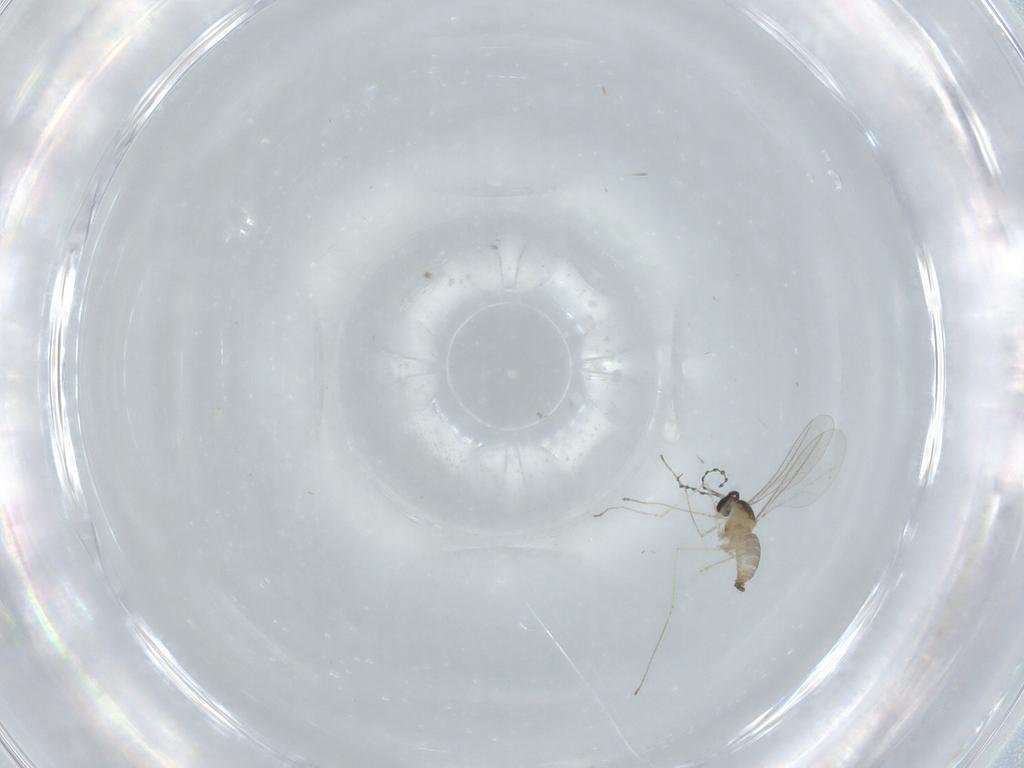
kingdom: Animalia
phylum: Arthropoda
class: Insecta
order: Diptera
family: Cecidomyiidae
